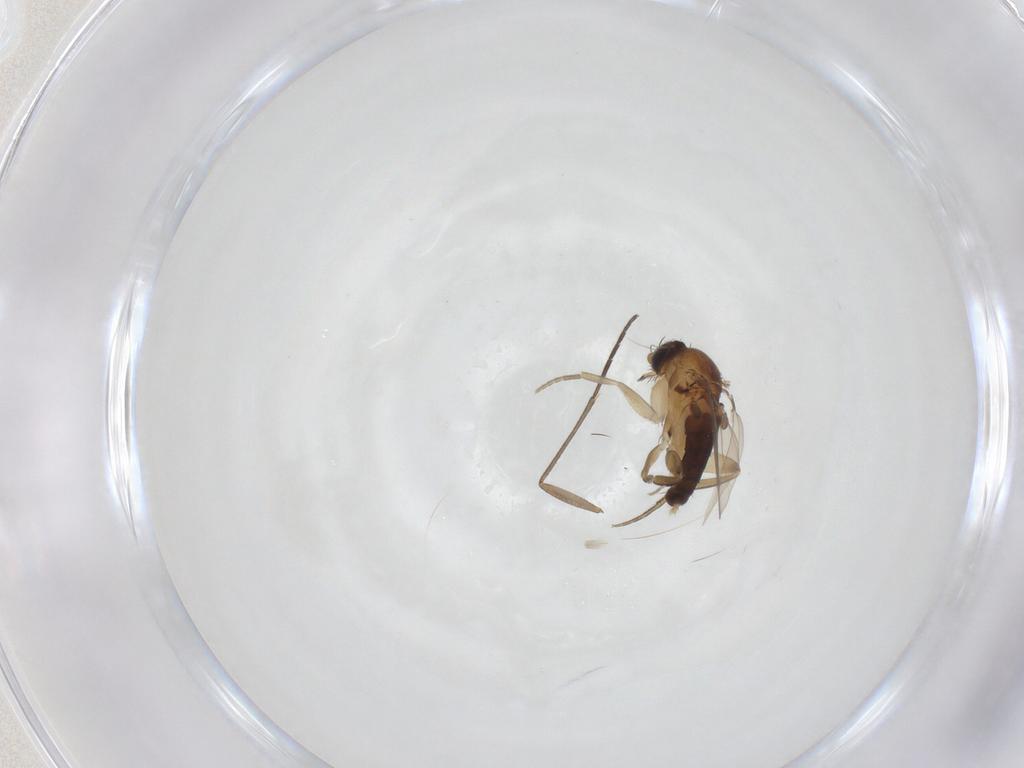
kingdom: Animalia
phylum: Arthropoda
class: Insecta
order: Diptera
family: Phoridae
